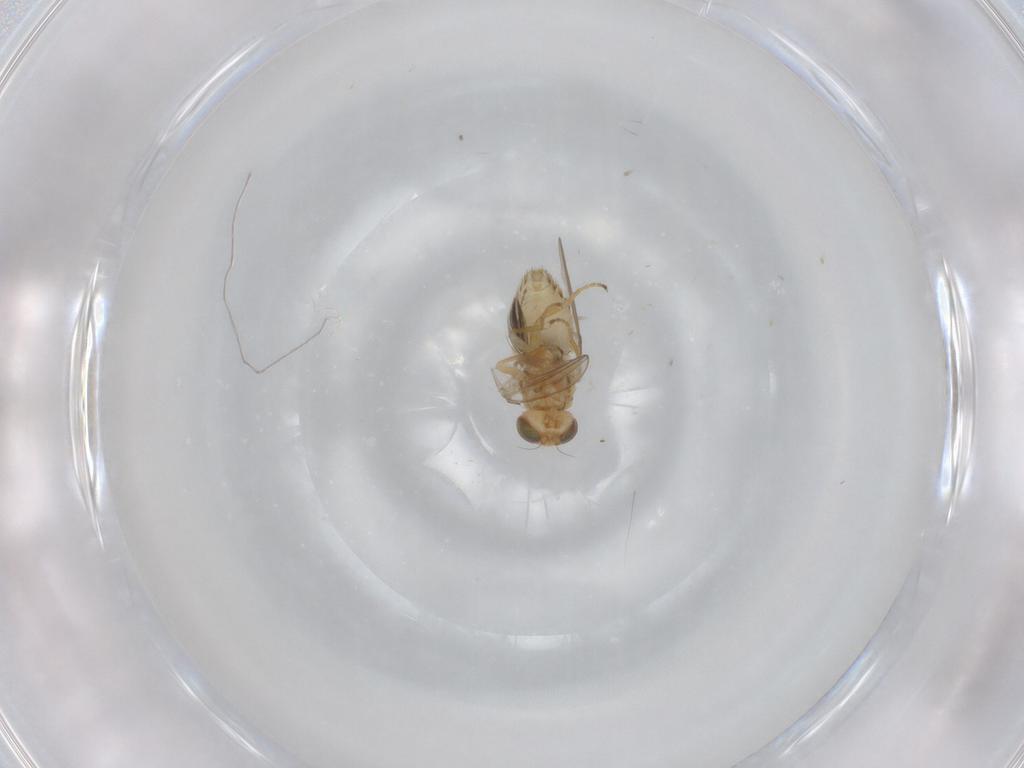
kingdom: Animalia
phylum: Arthropoda
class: Insecta
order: Diptera
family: Chyromyidae
